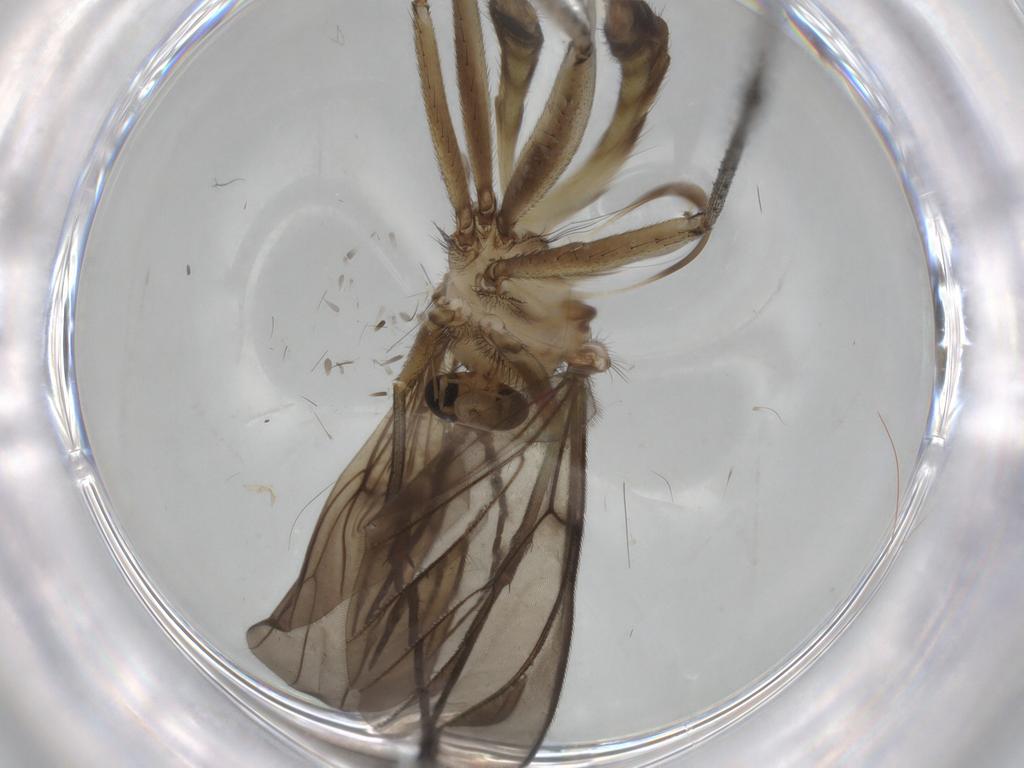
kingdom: Animalia
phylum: Arthropoda
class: Insecta
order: Diptera
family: Mycetophilidae
